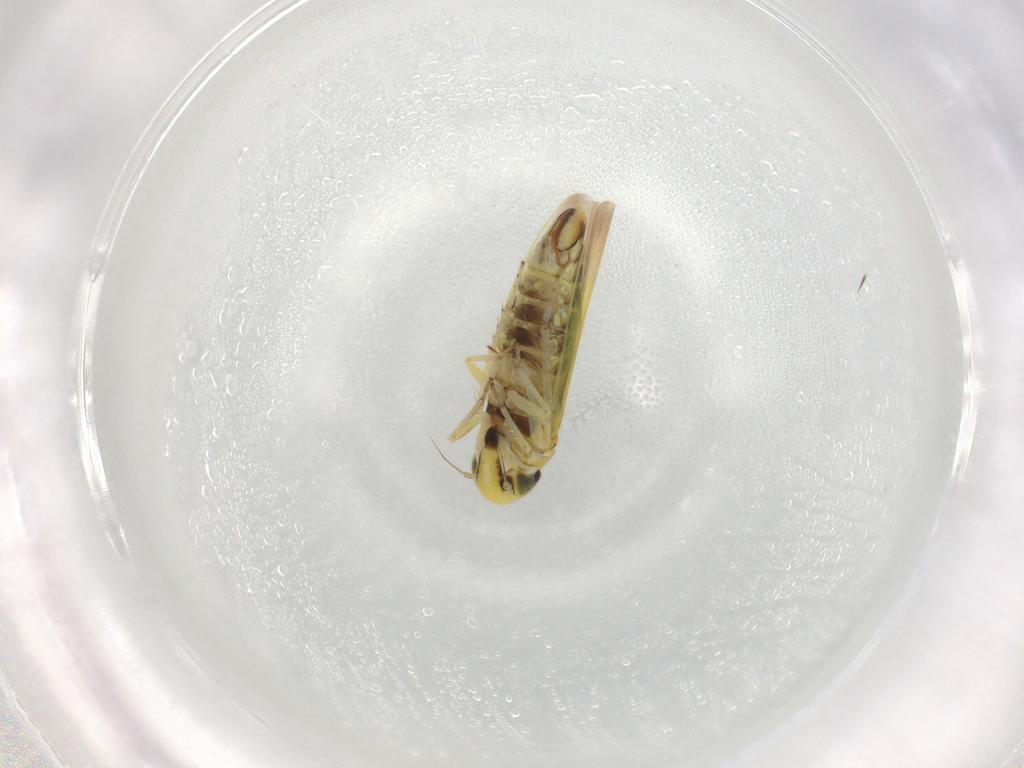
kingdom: Animalia
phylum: Arthropoda
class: Insecta
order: Hemiptera
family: Cicadellidae
